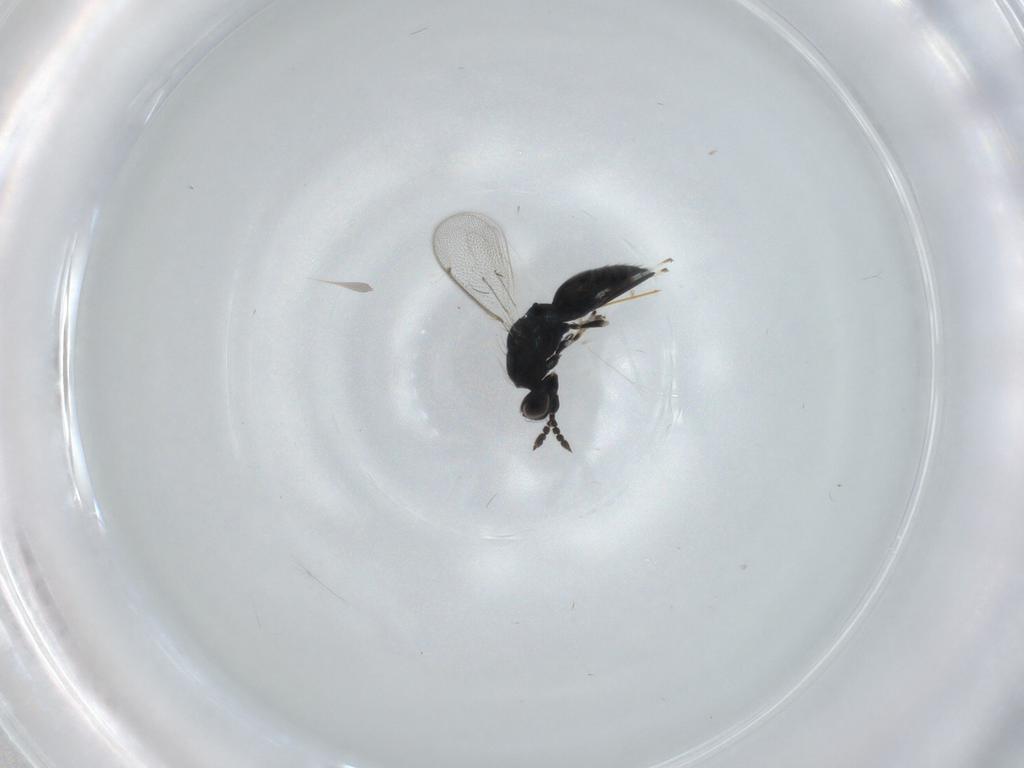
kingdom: Animalia
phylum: Arthropoda
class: Insecta
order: Hymenoptera
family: Eulophidae
